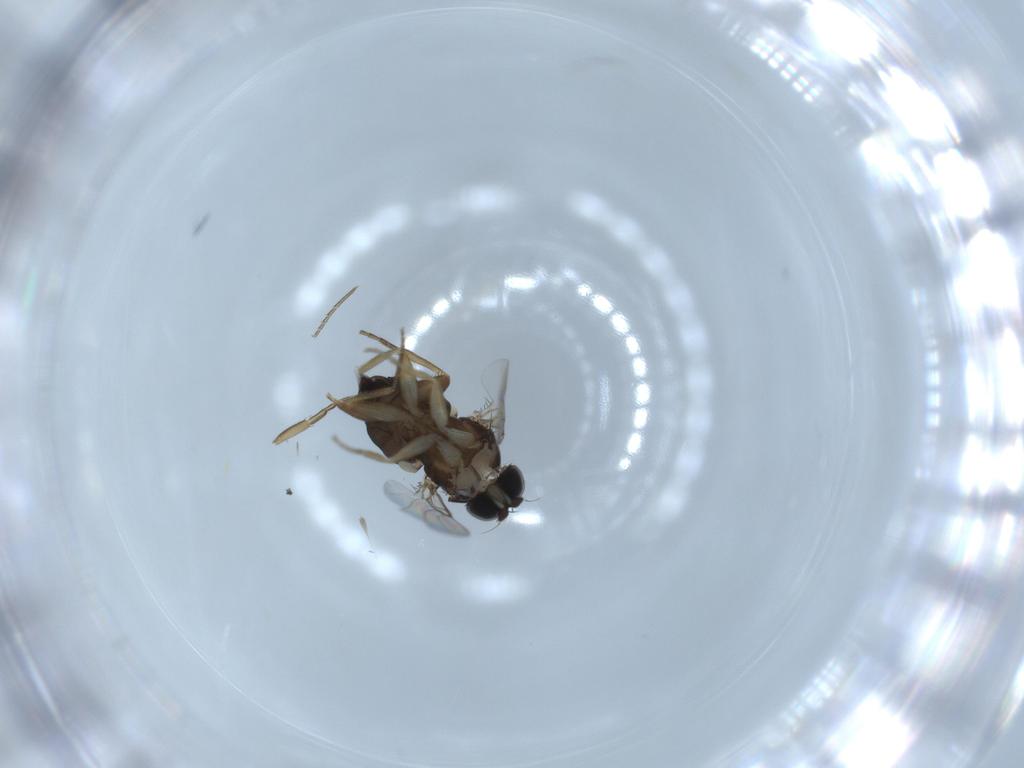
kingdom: Animalia
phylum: Arthropoda
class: Insecta
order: Diptera
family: Phoridae
